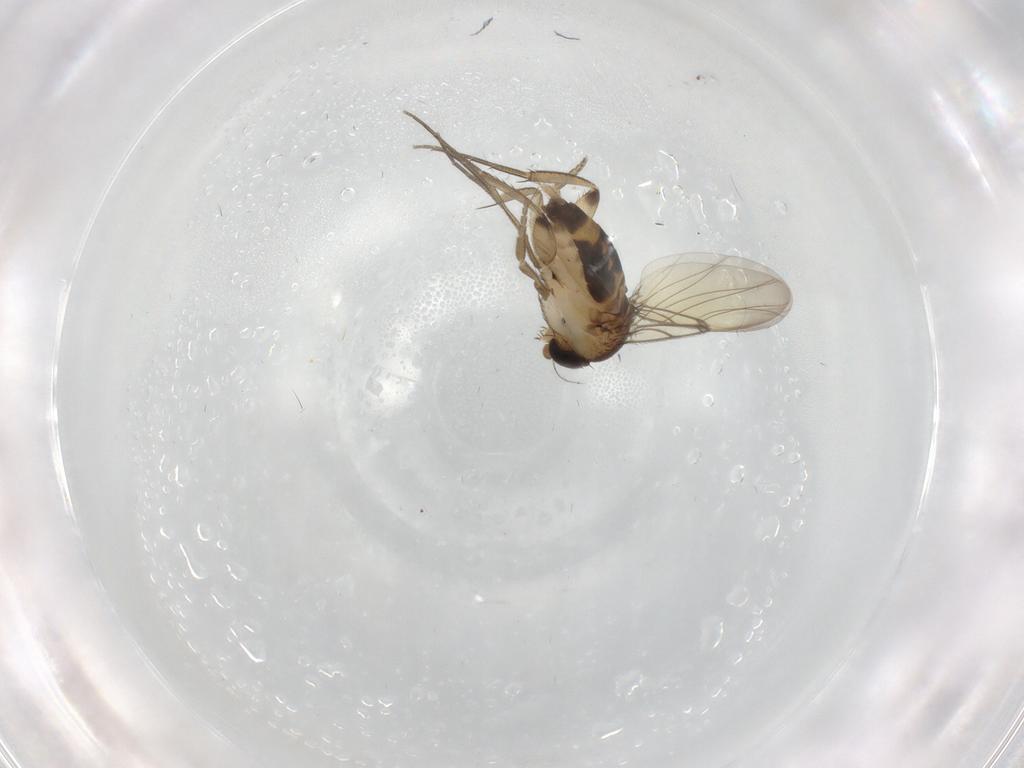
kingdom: Animalia
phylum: Arthropoda
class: Insecta
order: Diptera
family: Phoridae
